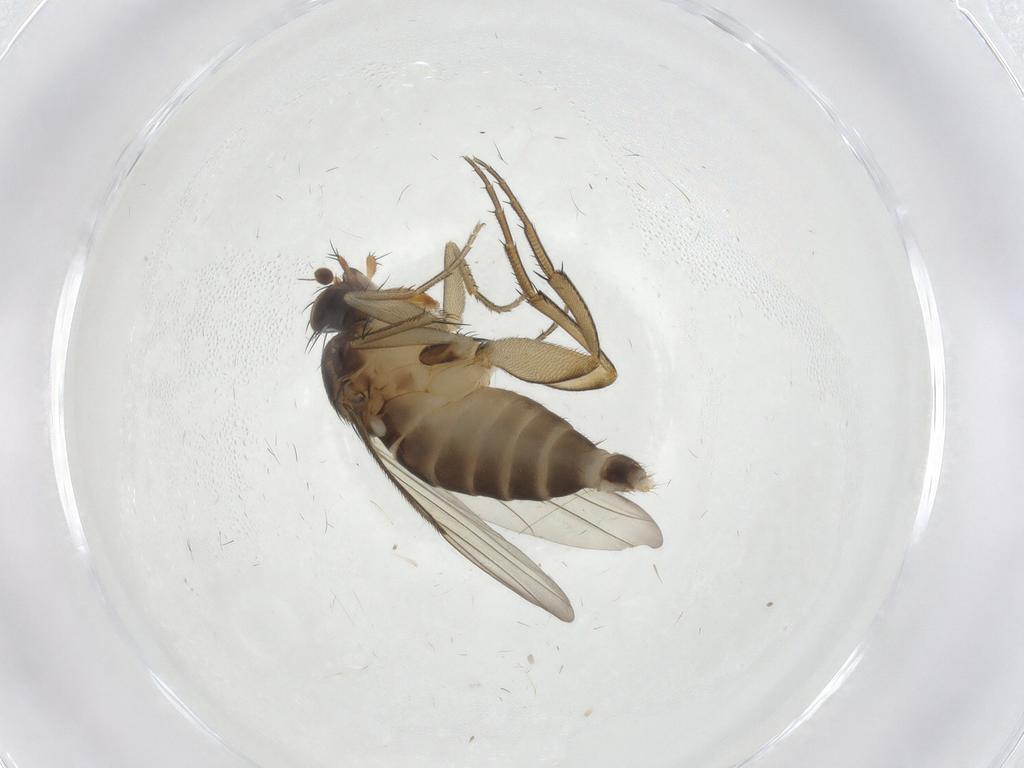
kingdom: Animalia
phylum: Arthropoda
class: Insecta
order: Diptera
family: Phoridae
